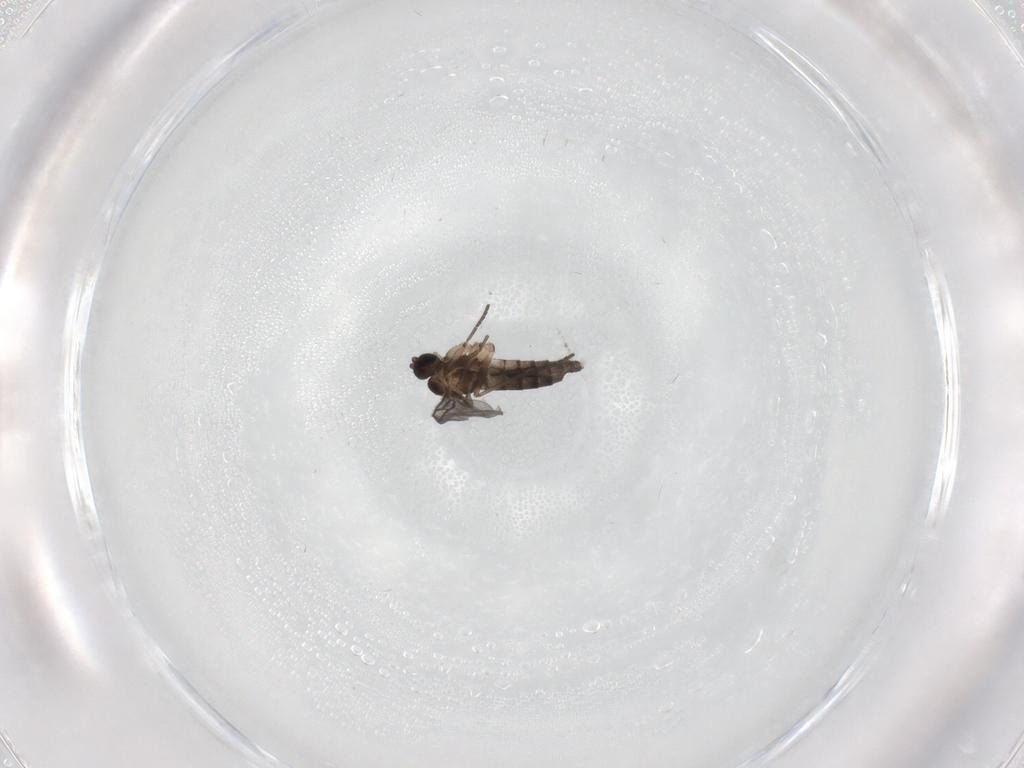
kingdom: Animalia
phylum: Arthropoda
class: Insecta
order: Diptera
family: Sciaridae
